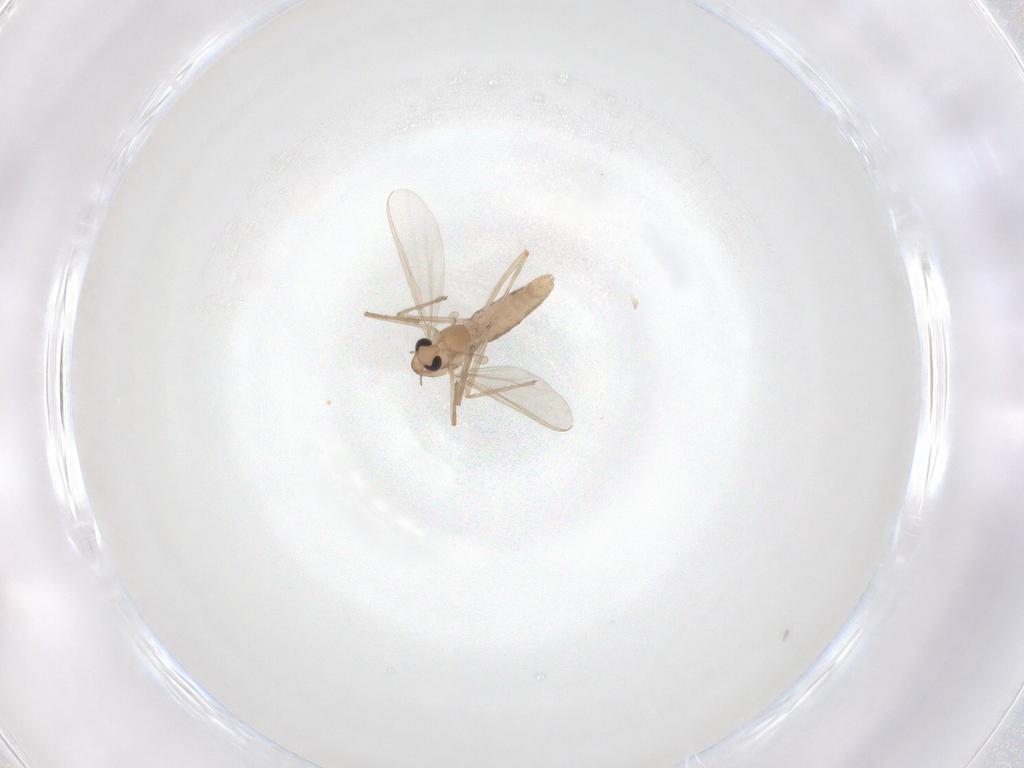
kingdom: Animalia
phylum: Arthropoda
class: Insecta
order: Diptera
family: Chironomidae
